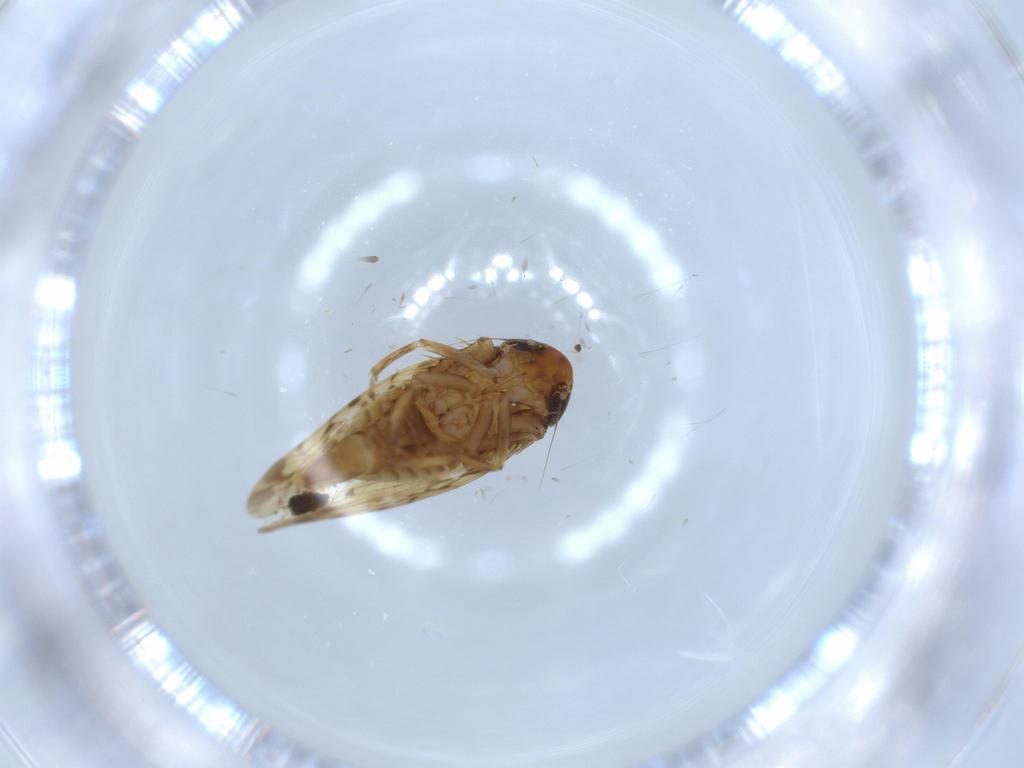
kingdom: Animalia
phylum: Arthropoda
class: Insecta
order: Hemiptera
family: Cicadellidae
